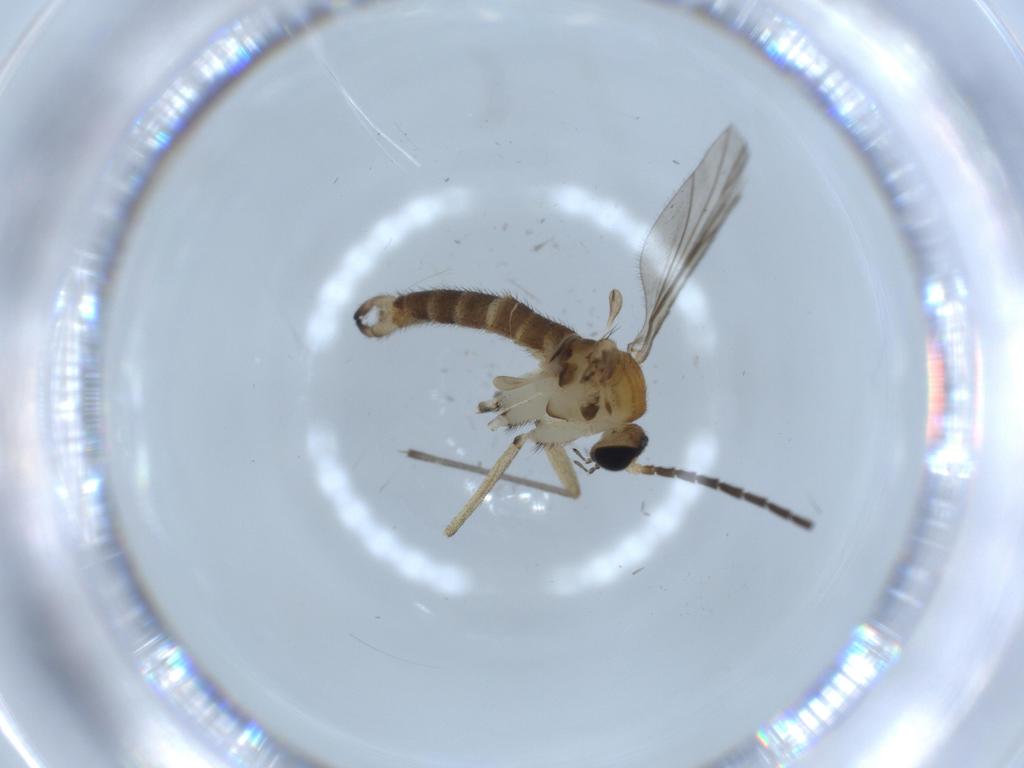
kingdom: Animalia
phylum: Arthropoda
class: Insecta
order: Diptera
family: Sciaridae
